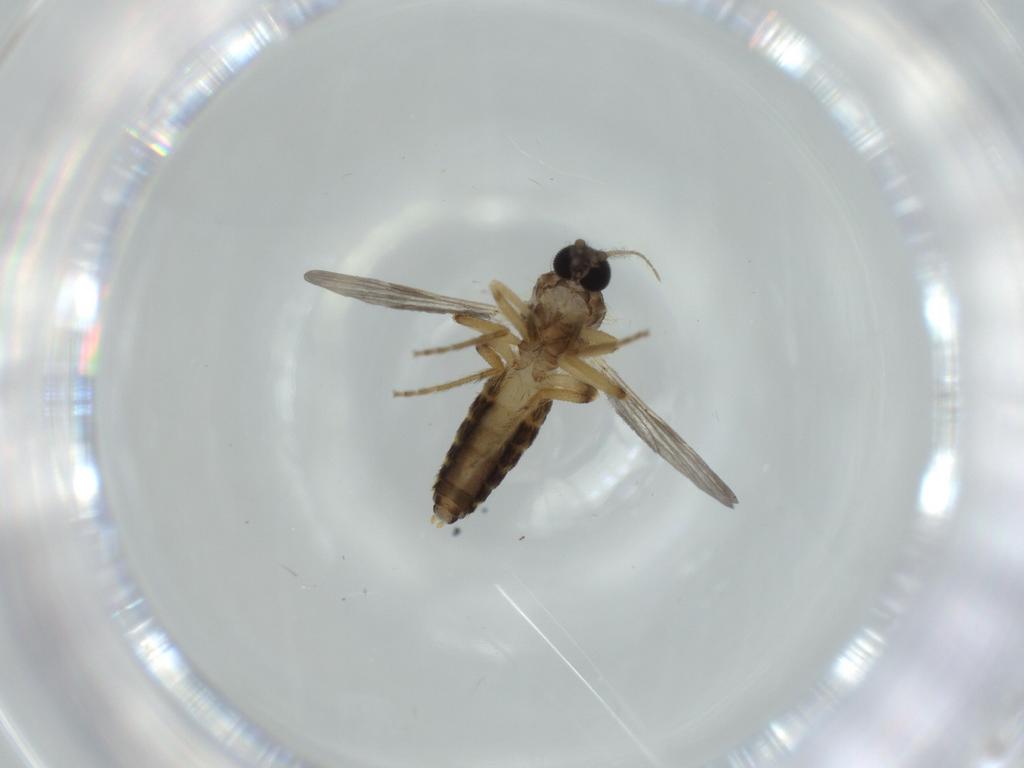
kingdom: Animalia
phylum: Arthropoda
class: Insecta
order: Diptera
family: Ceratopogonidae
